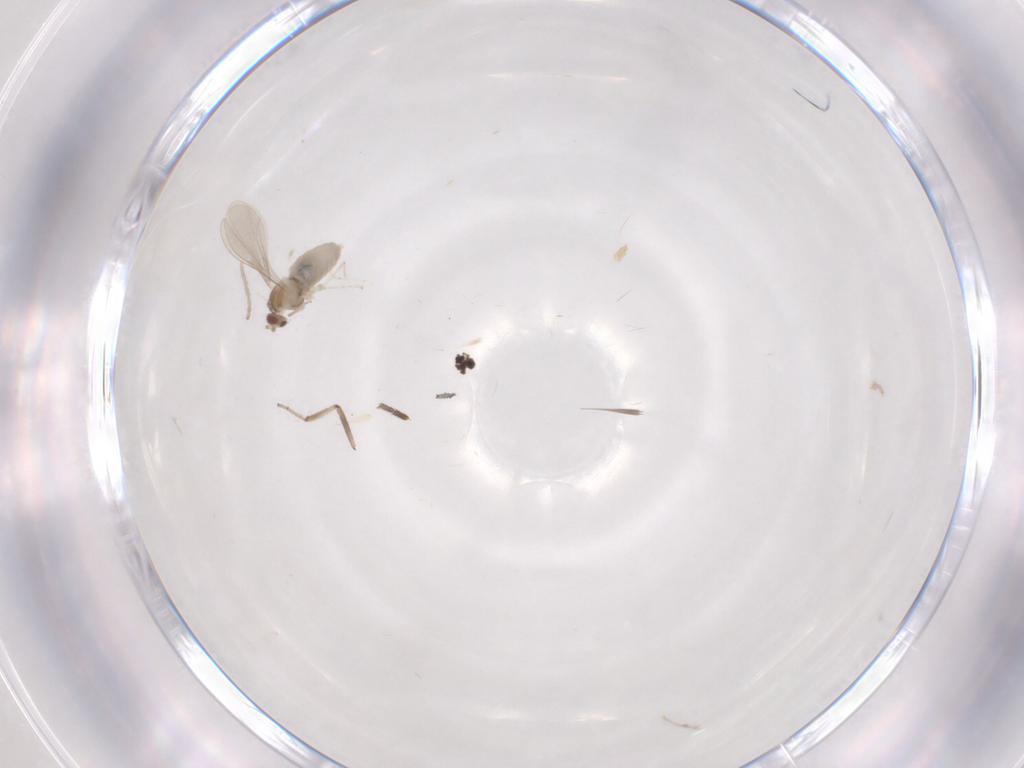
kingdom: Animalia
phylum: Arthropoda
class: Insecta
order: Diptera
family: Cecidomyiidae
